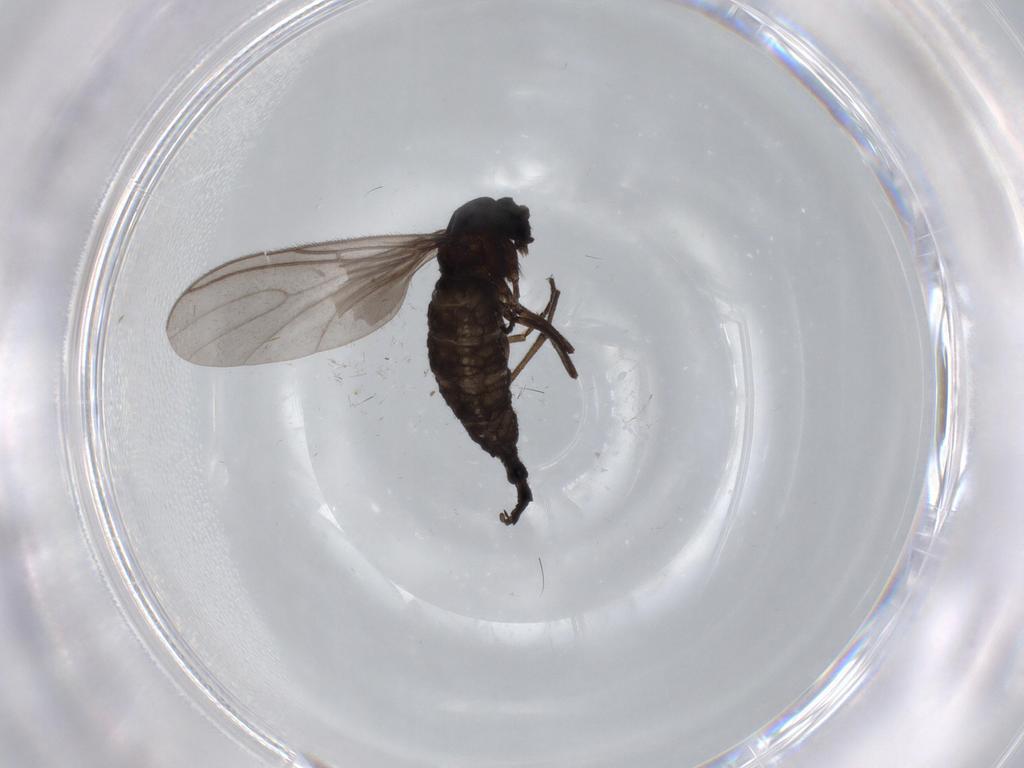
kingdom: Animalia
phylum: Arthropoda
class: Insecta
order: Diptera
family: Sciaridae
